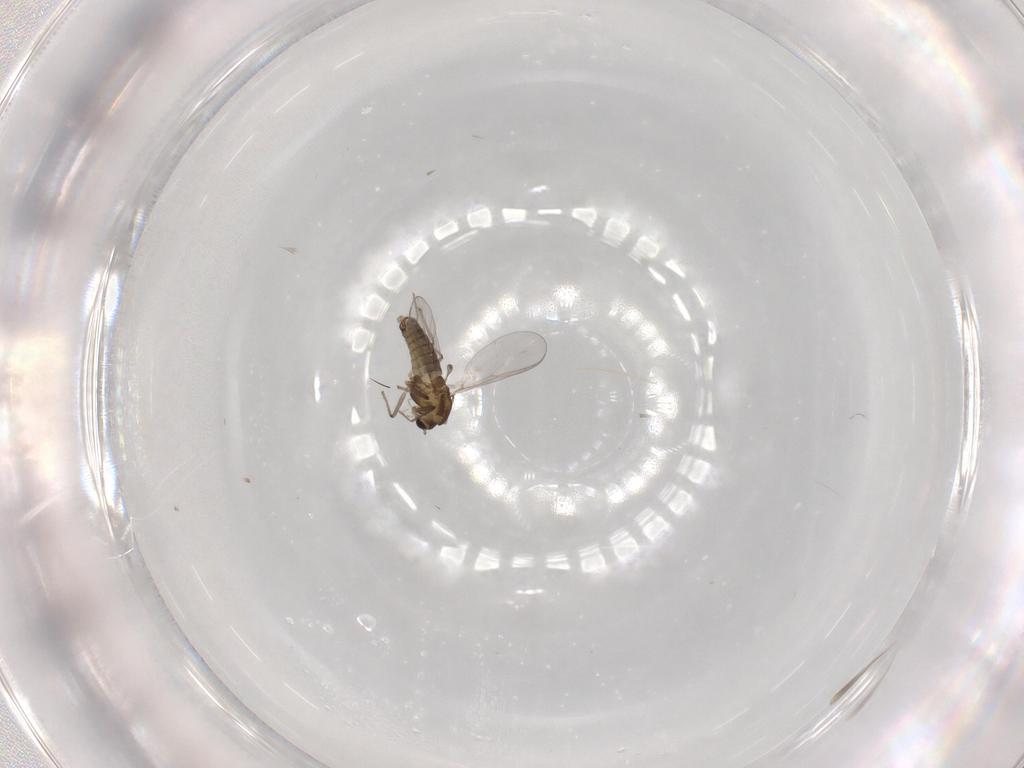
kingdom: Animalia
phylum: Arthropoda
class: Insecta
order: Diptera
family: Chironomidae
